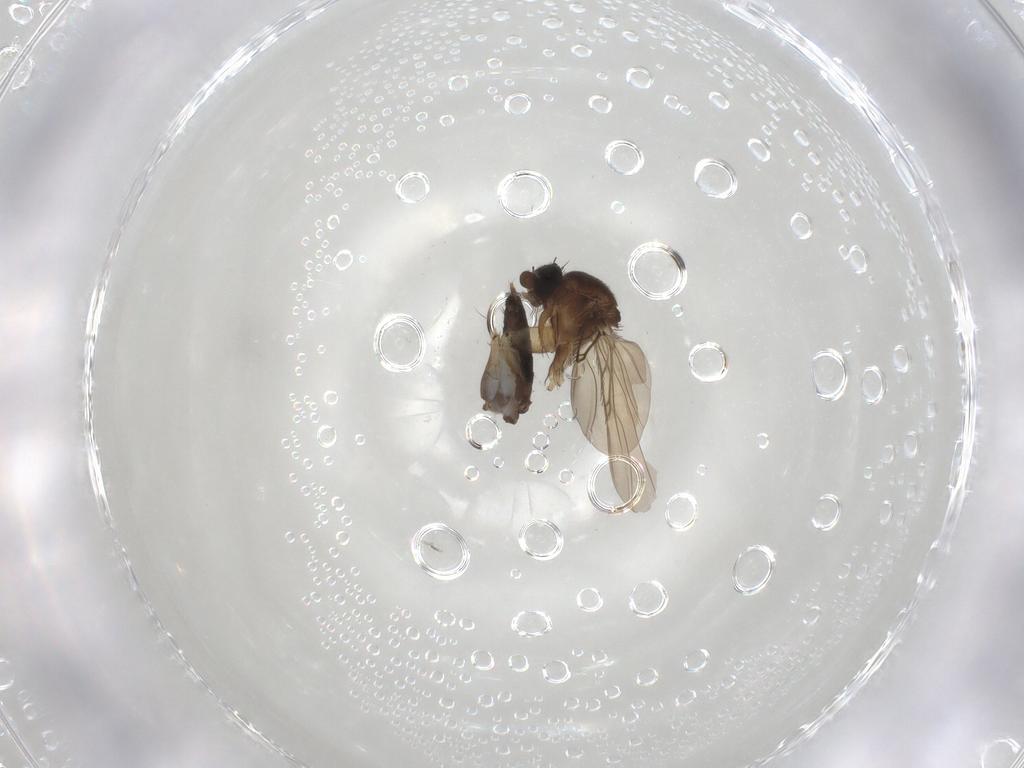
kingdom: Animalia
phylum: Arthropoda
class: Insecta
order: Diptera
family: Phoridae
